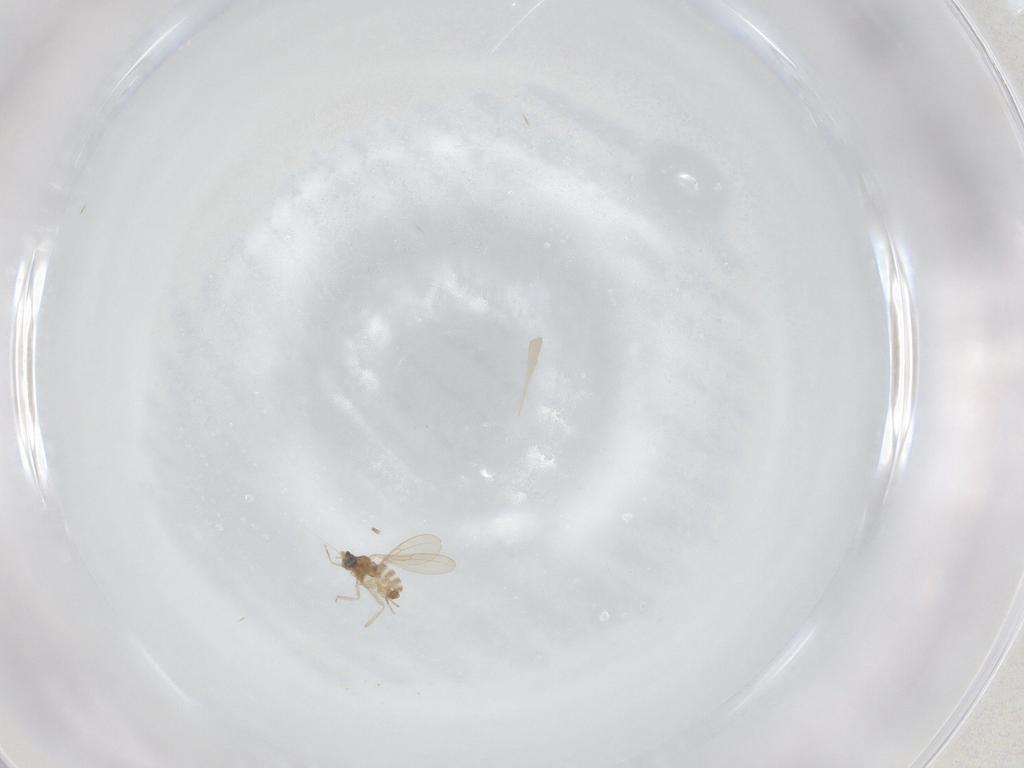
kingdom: Animalia
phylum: Arthropoda
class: Insecta
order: Diptera
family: Cecidomyiidae
